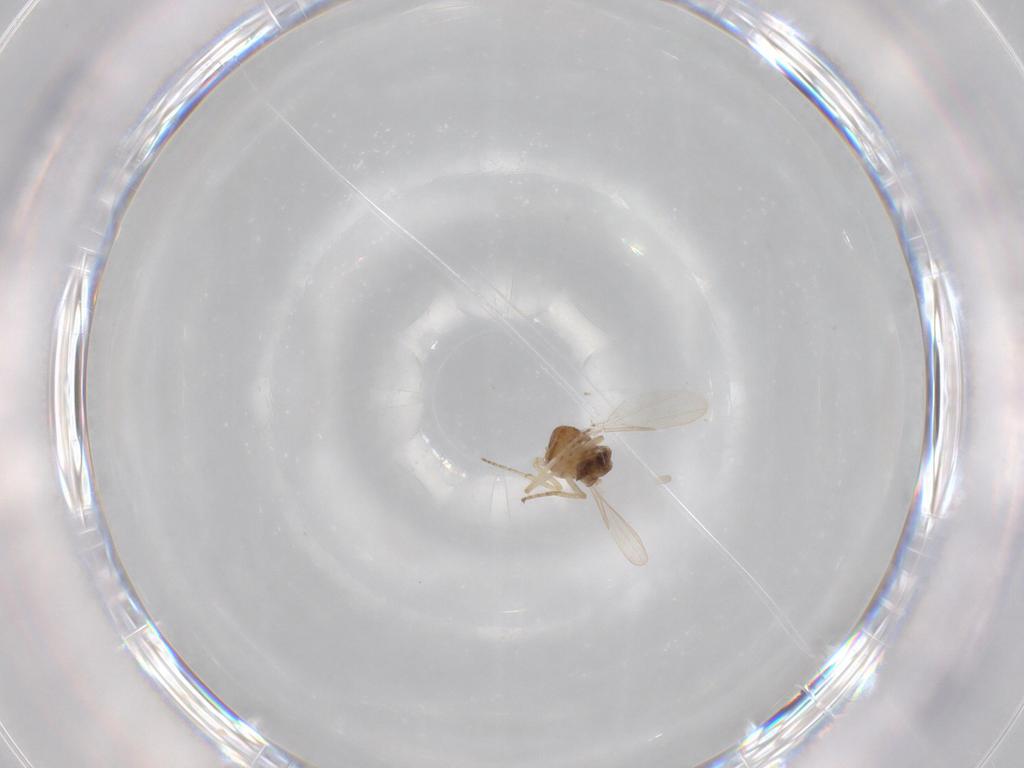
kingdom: Animalia
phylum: Arthropoda
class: Insecta
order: Diptera
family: Ceratopogonidae
